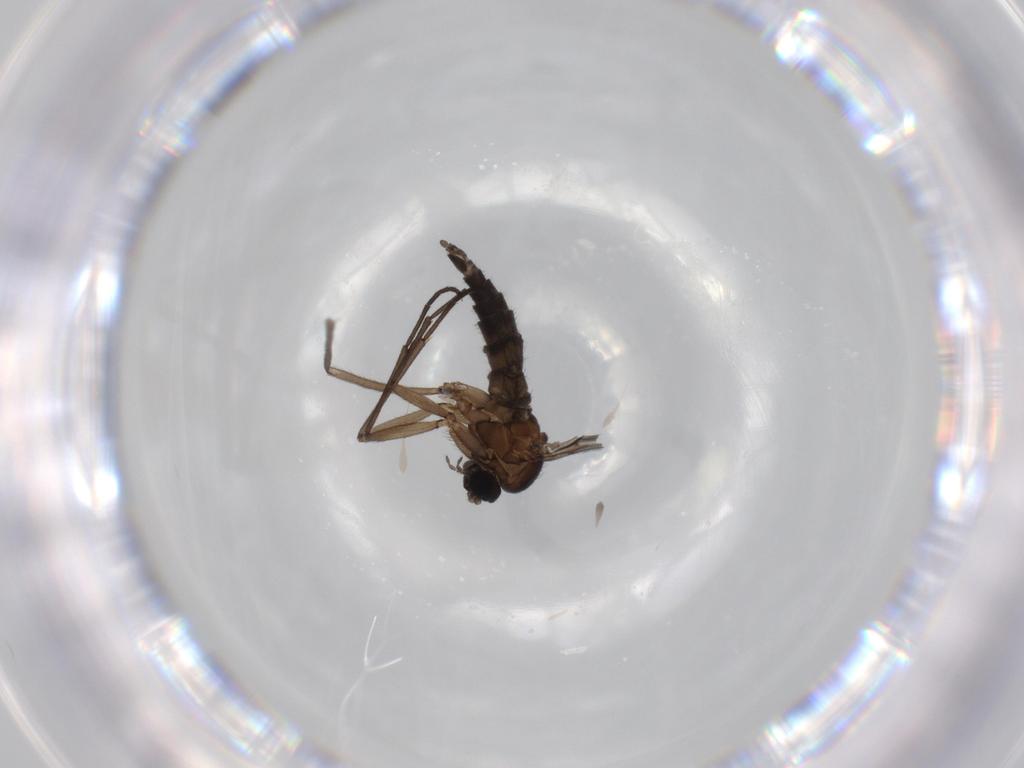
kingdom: Animalia
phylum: Arthropoda
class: Insecta
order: Diptera
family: Sciaridae
